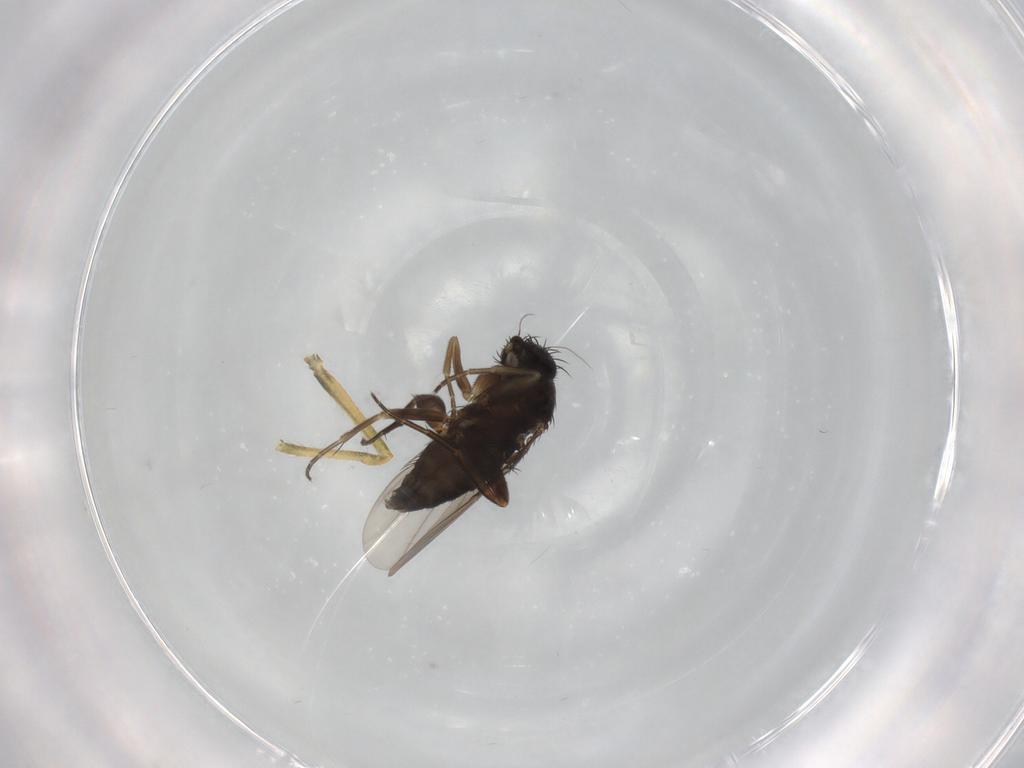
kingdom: Animalia
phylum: Arthropoda
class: Insecta
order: Diptera
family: Phoridae
